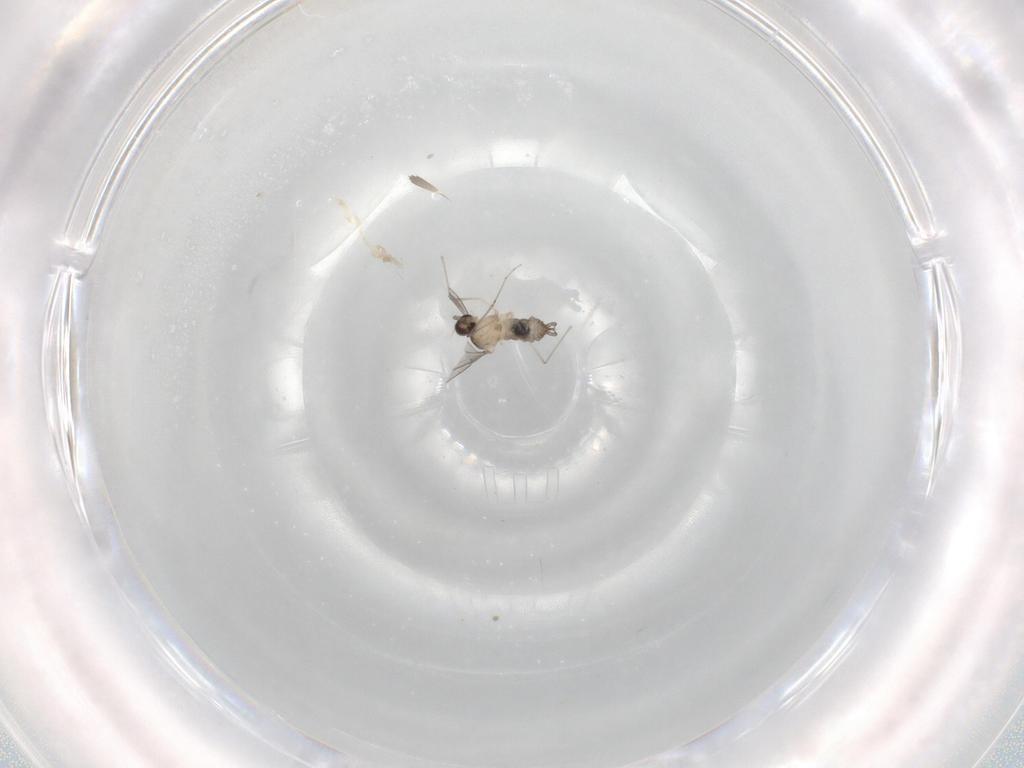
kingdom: Animalia
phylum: Arthropoda
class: Insecta
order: Diptera
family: Cecidomyiidae
